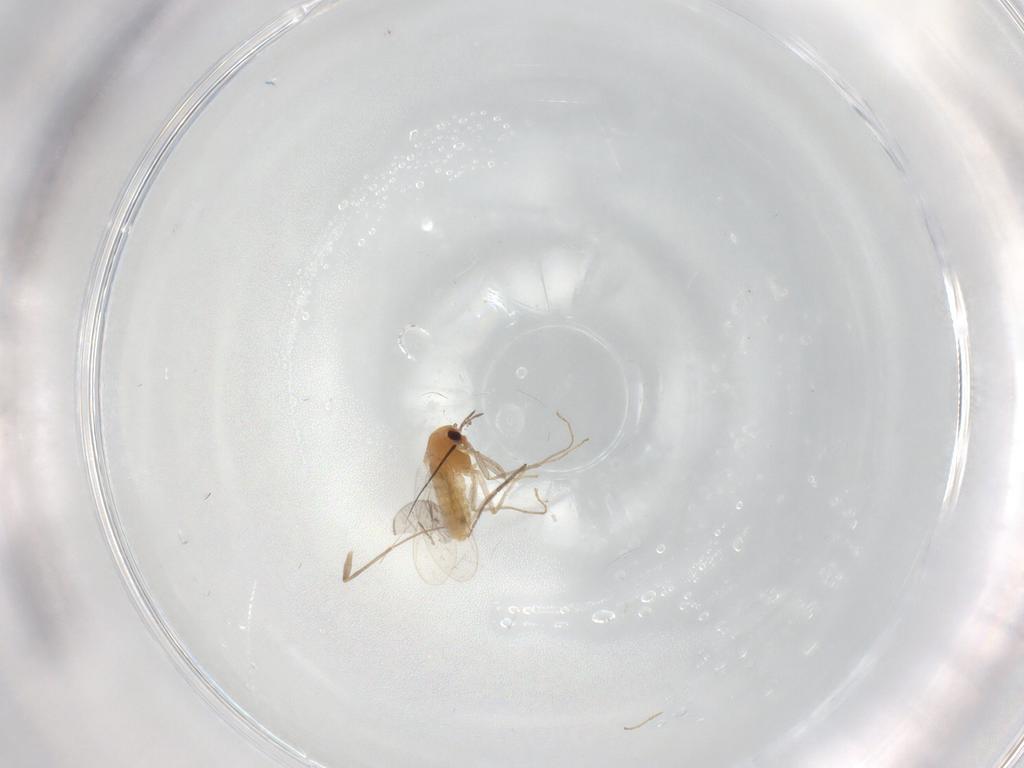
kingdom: Animalia
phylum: Arthropoda
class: Insecta
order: Diptera
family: Chironomidae
